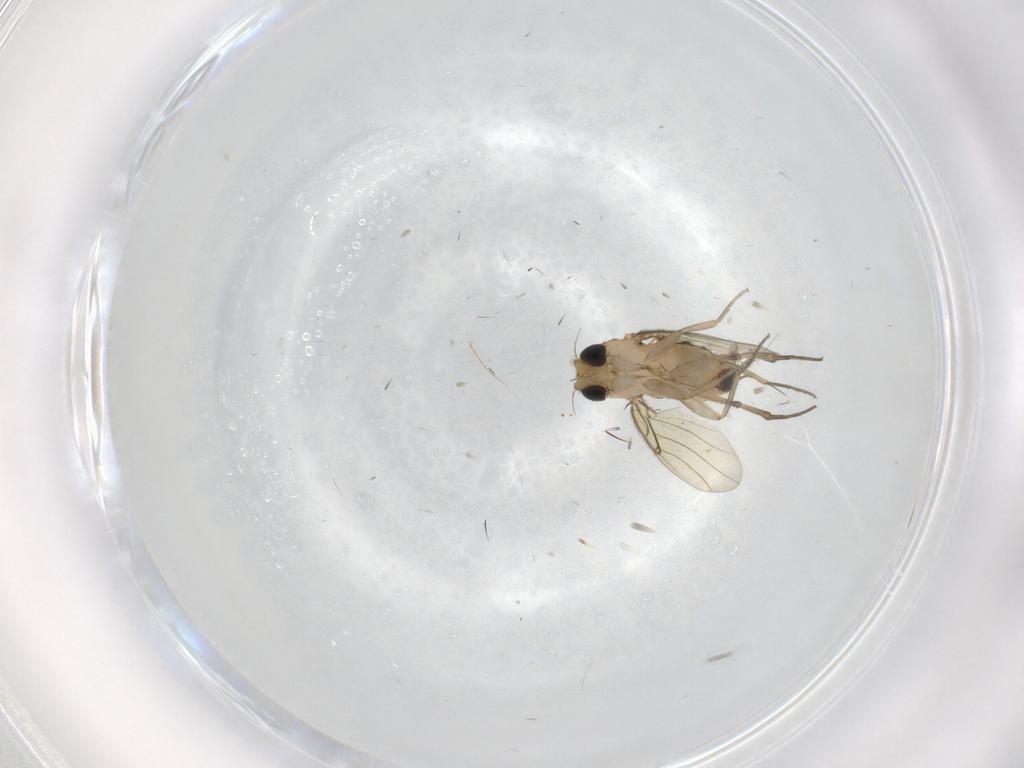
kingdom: Animalia
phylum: Arthropoda
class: Insecta
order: Diptera
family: Phoridae
